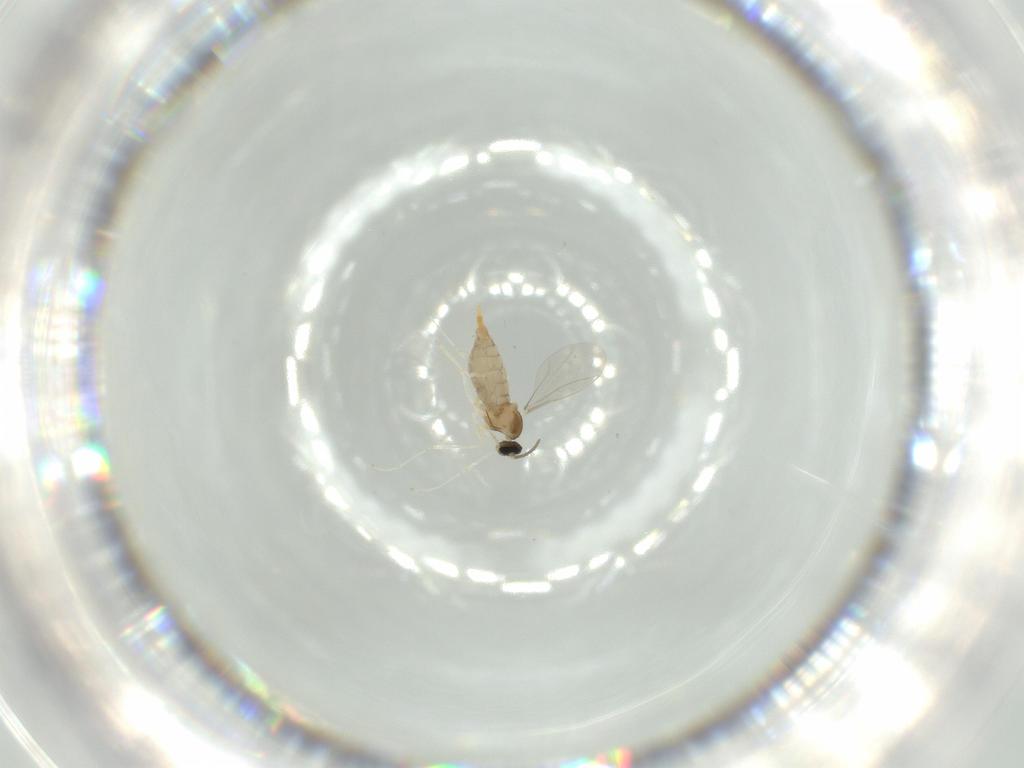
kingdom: Animalia
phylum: Arthropoda
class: Insecta
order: Diptera
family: Cecidomyiidae
